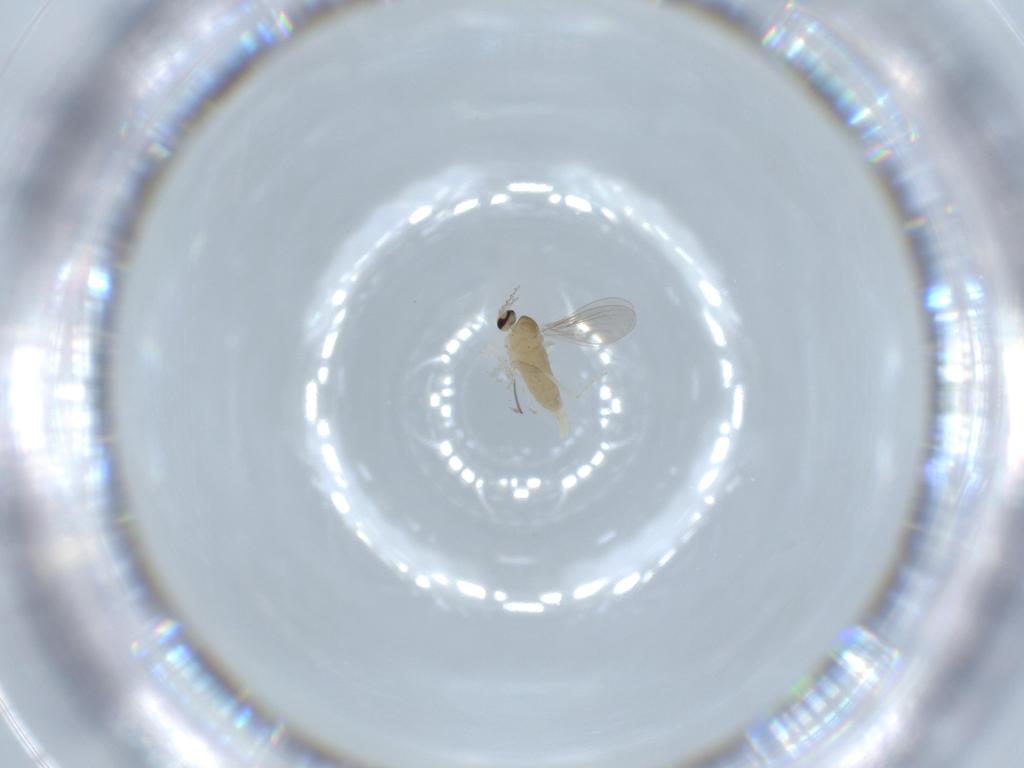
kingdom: Animalia
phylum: Arthropoda
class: Insecta
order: Diptera
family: Cecidomyiidae
